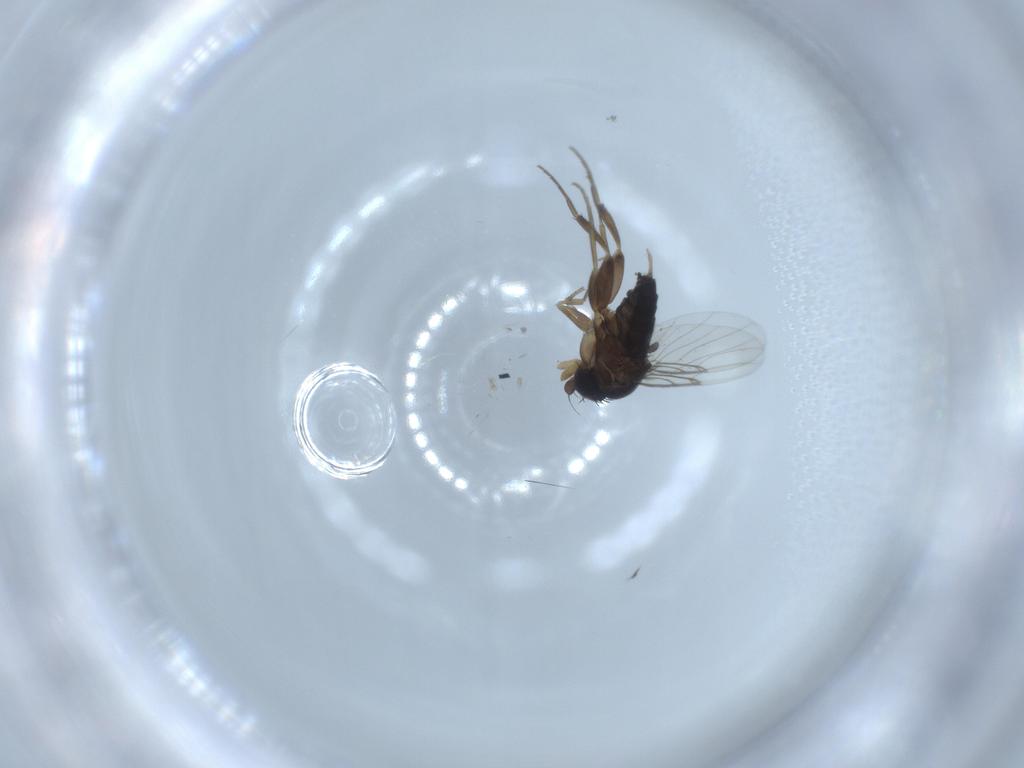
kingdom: Animalia
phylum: Arthropoda
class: Insecta
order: Diptera
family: Phoridae
